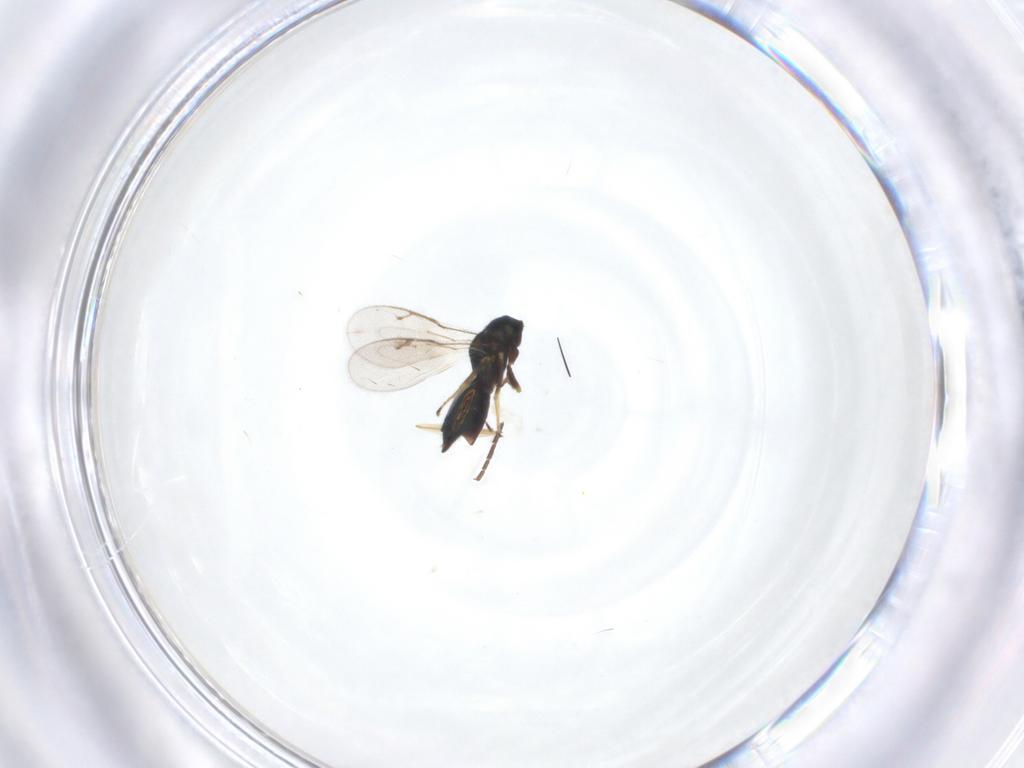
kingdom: Animalia
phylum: Arthropoda
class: Insecta
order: Hymenoptera
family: Pteromalidae
